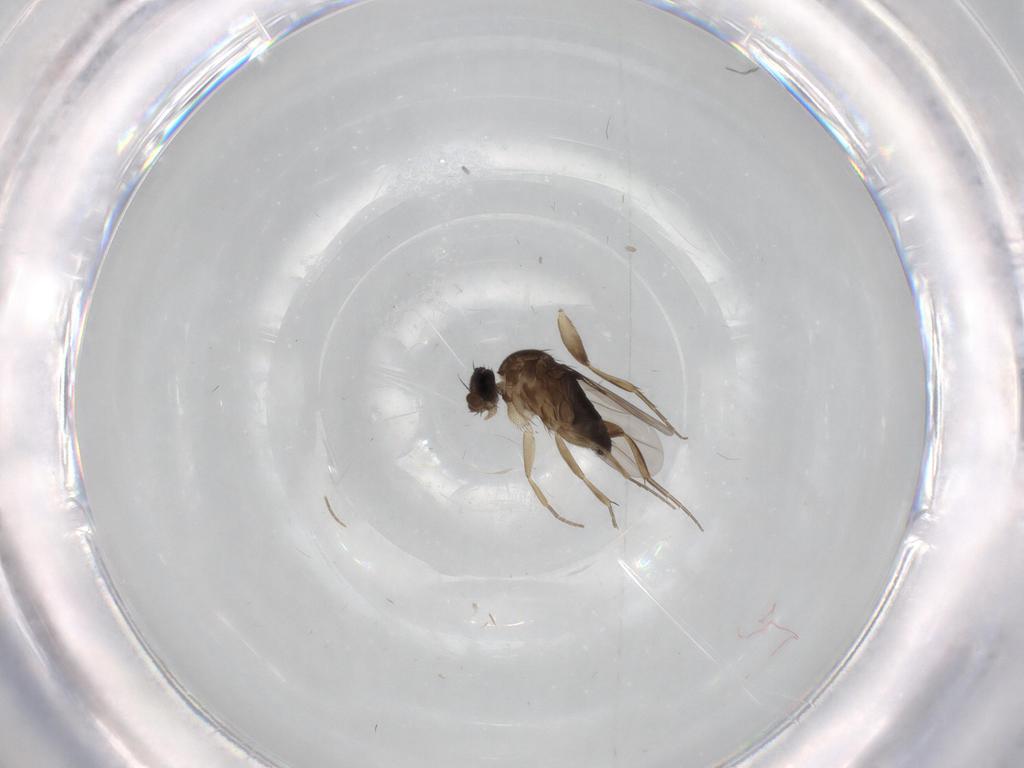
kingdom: Animalia
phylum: Arthropoda
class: Insecta
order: Diptera
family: Phoridae
